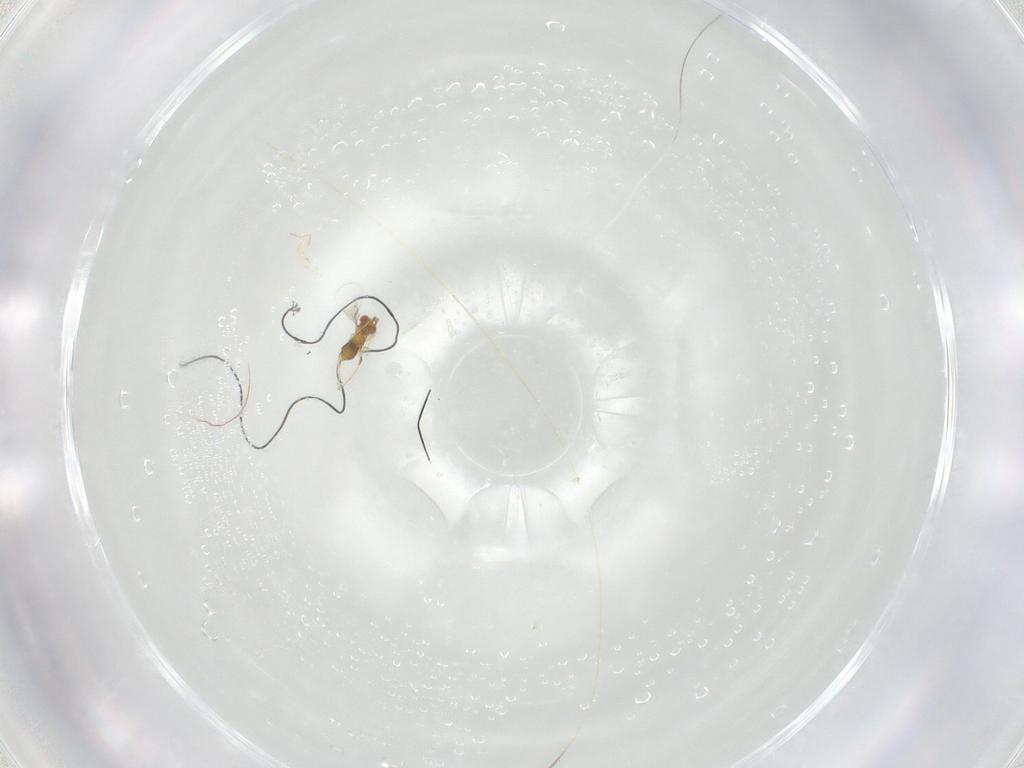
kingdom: Animalia
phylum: Arthropoda
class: Insecta
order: Hymenoptera
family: Trichogrammatidae
